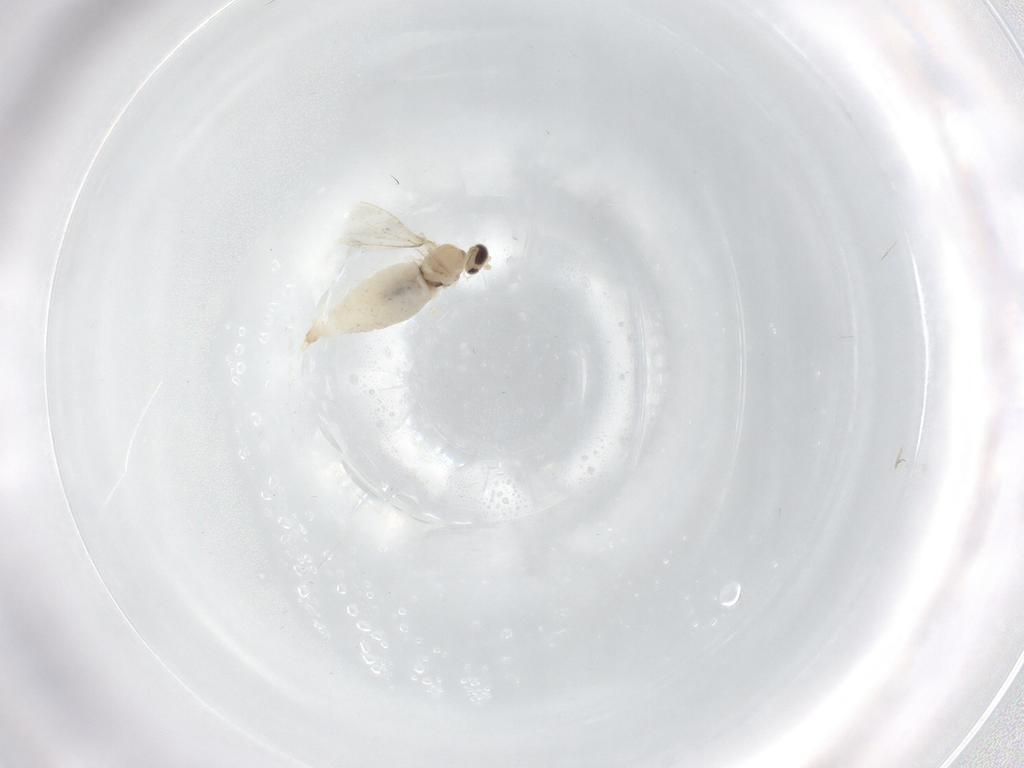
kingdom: Animalia
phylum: Arthropoda
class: Insecta
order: Diptera
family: Cecidomyiidae
